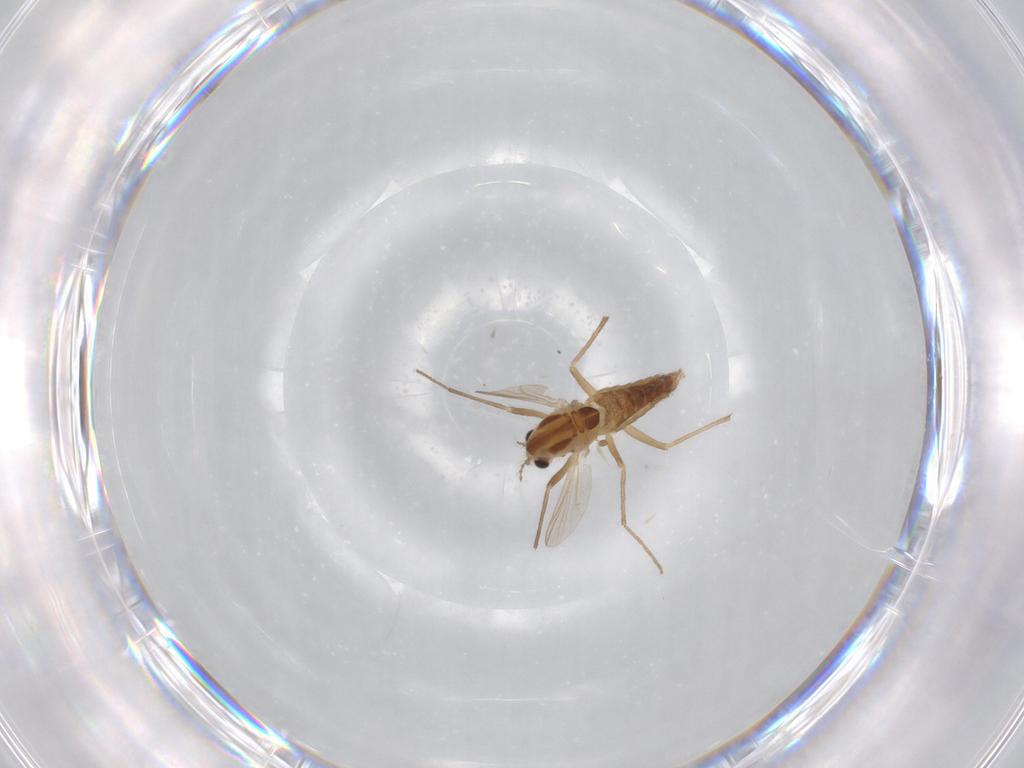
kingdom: Animalia
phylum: Arthropoda
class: Insecta
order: Diptera
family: Chironomidae
